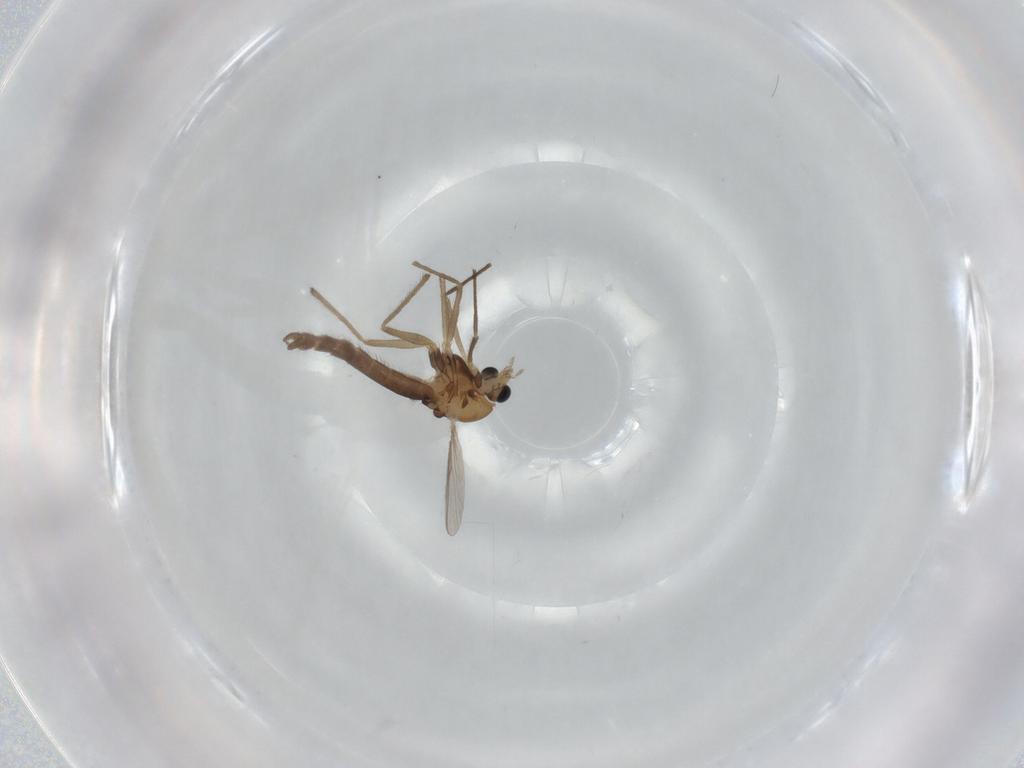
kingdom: Animalia
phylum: Arthropoda
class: Insecta
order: Diptera
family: Chironomidae
